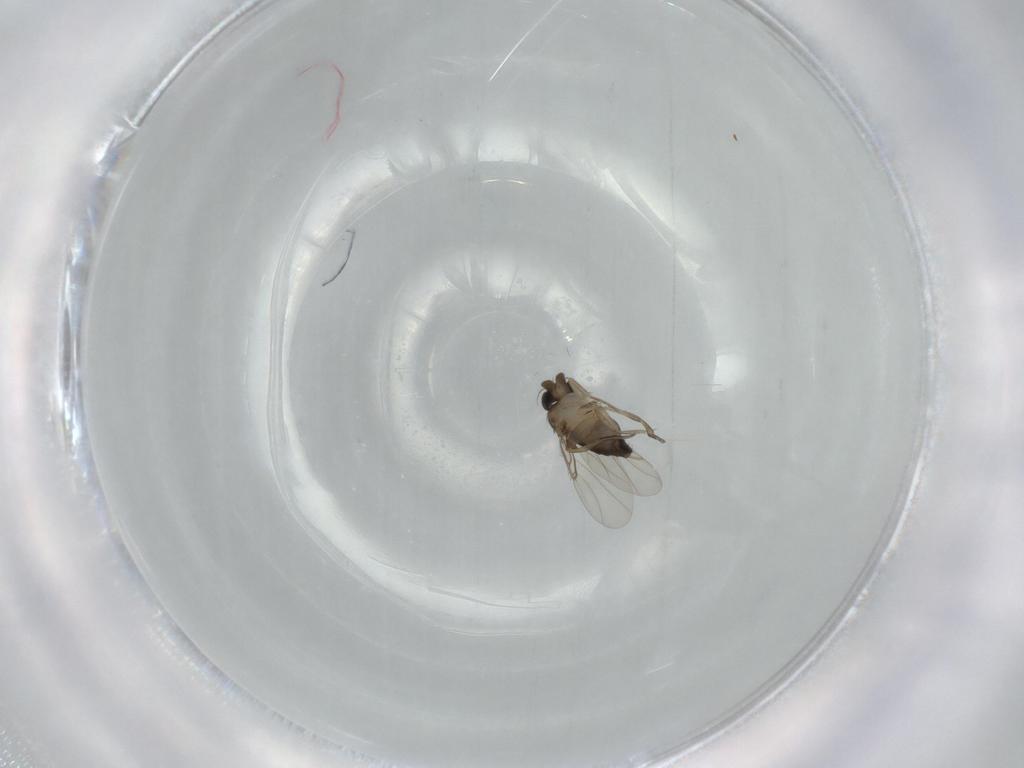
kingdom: Animalia
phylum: Arthropoda
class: Insecta
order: Diptera
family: Phoridae
